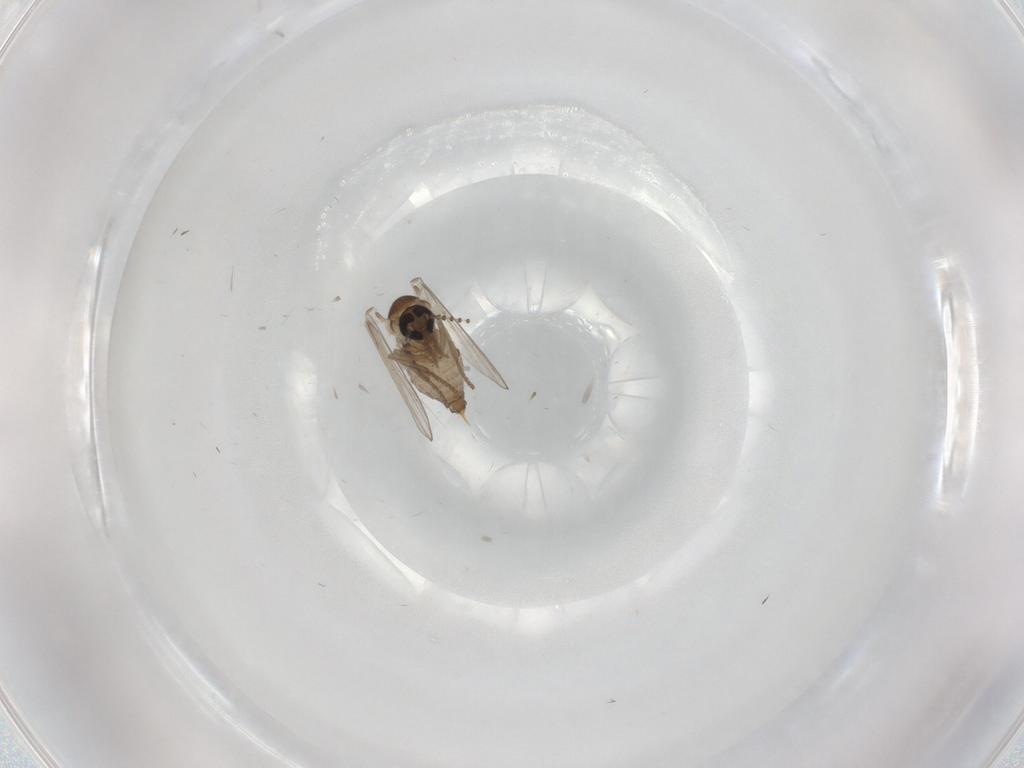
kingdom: Animalia
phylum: Arthropoda
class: Insecta
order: Diptera
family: Psychodidae
